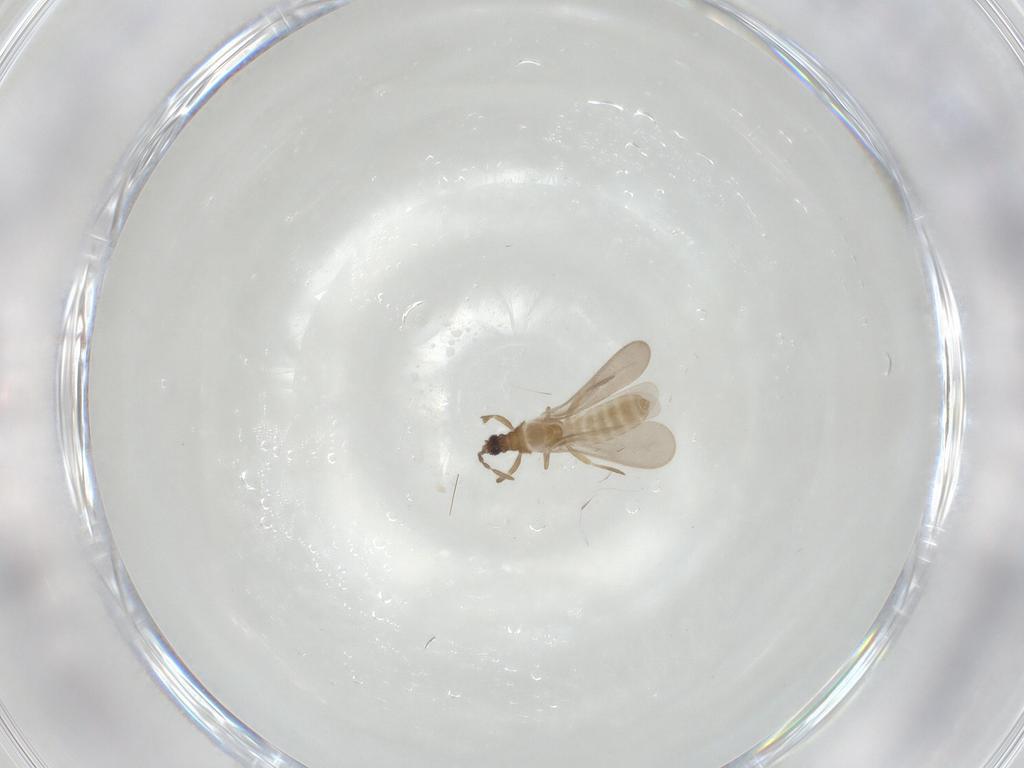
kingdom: Animalia
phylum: Arthropoda
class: Insecta
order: Hemiptera
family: Enicocephalidae
